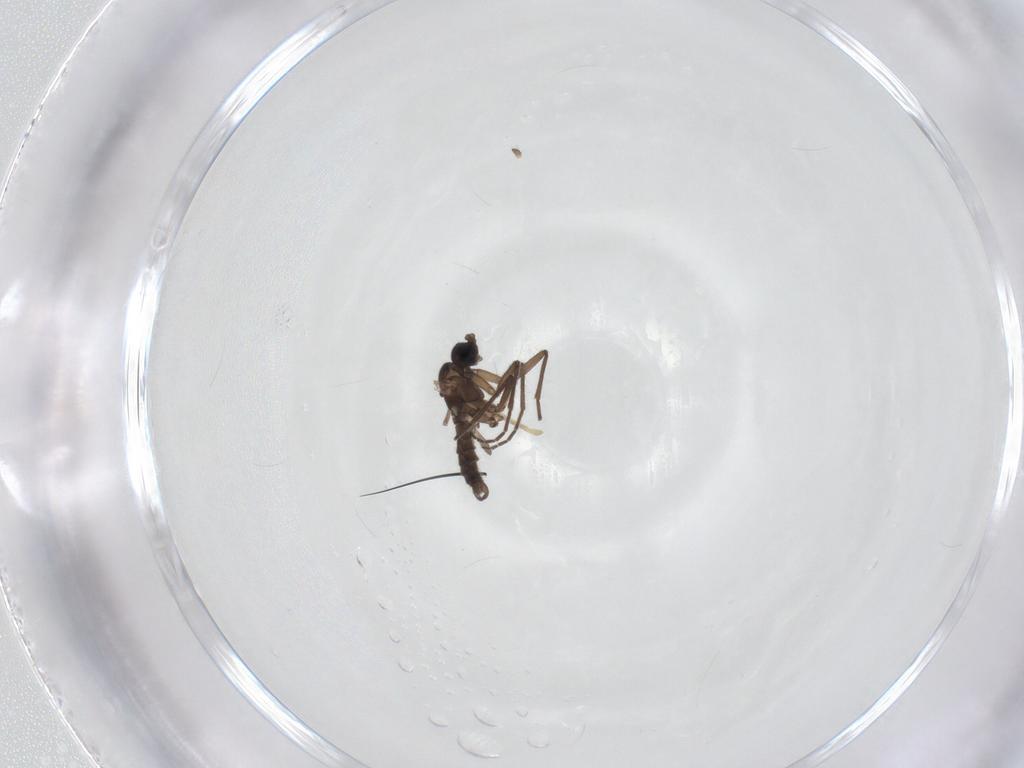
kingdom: Animalia
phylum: Arthropoda
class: Insecta
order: Diptera
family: Chironomidae
